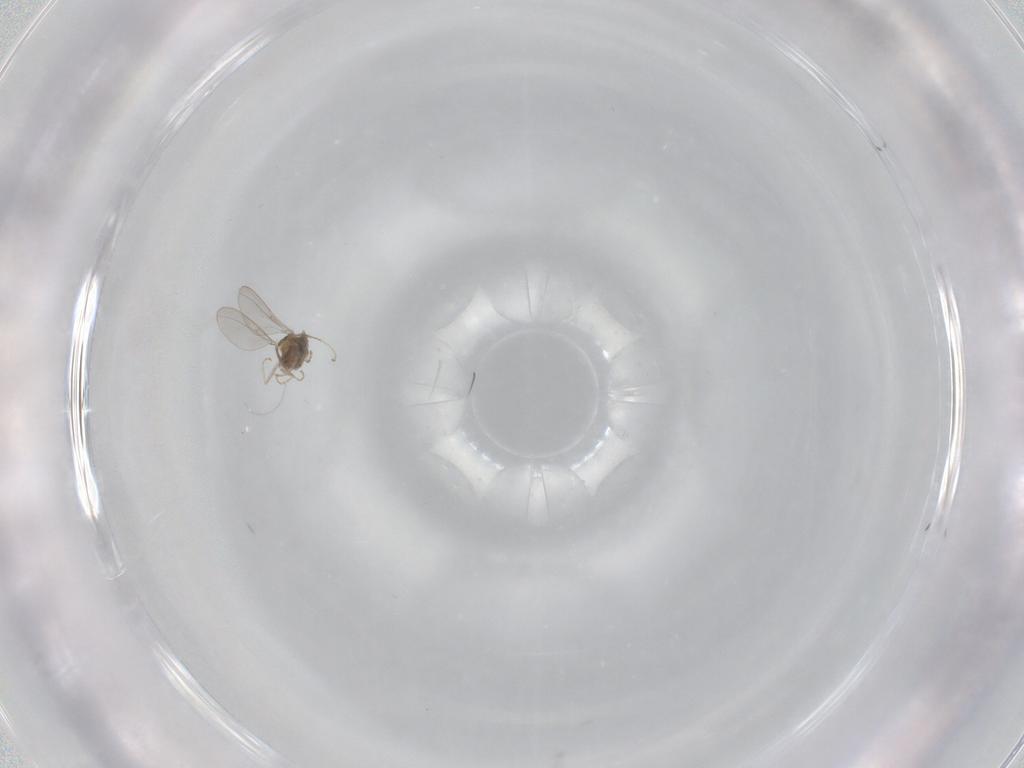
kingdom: Animalia
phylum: Arthropoda
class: Insecta
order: Diptera
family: Cecidomyiidae
